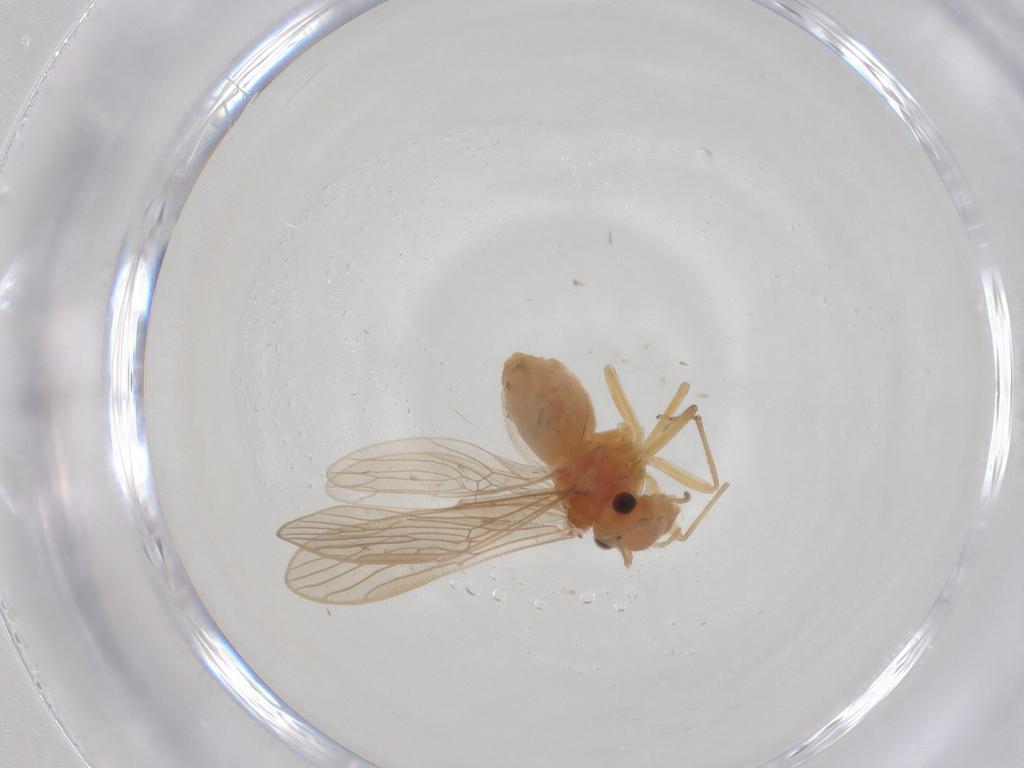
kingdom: Animalia
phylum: Arthropoda
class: Insecta
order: Psocodea
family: Epipsocidae
